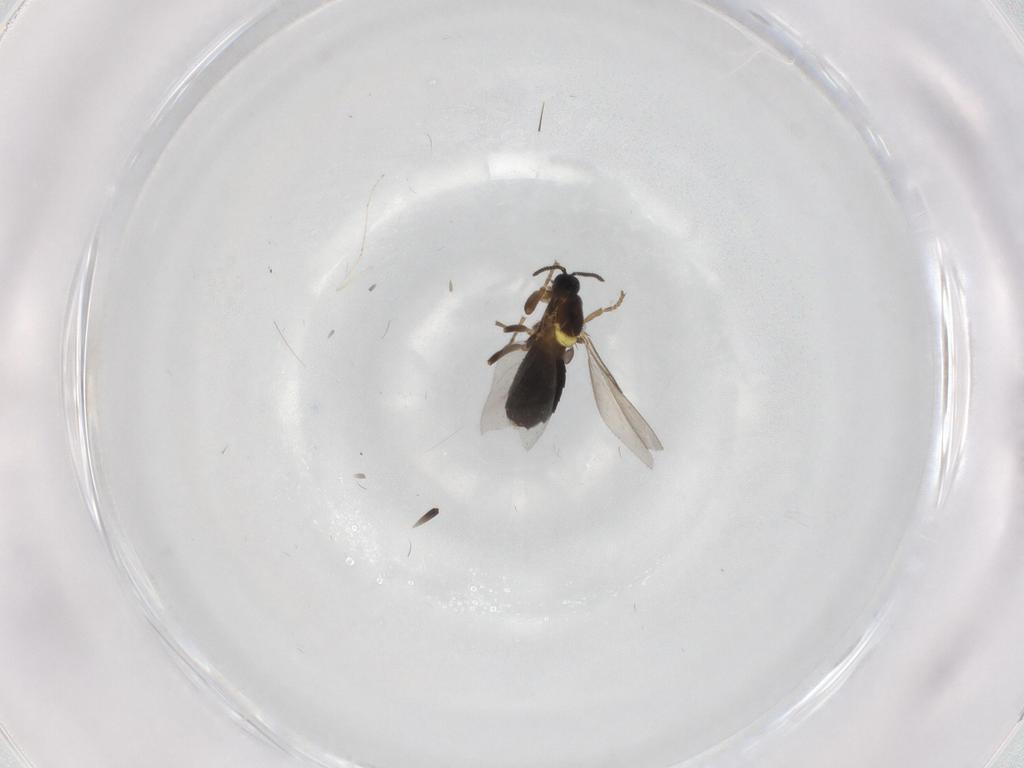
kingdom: Animalia
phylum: Arthropoda
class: Insecta
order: Diptera
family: Scatopsidae
